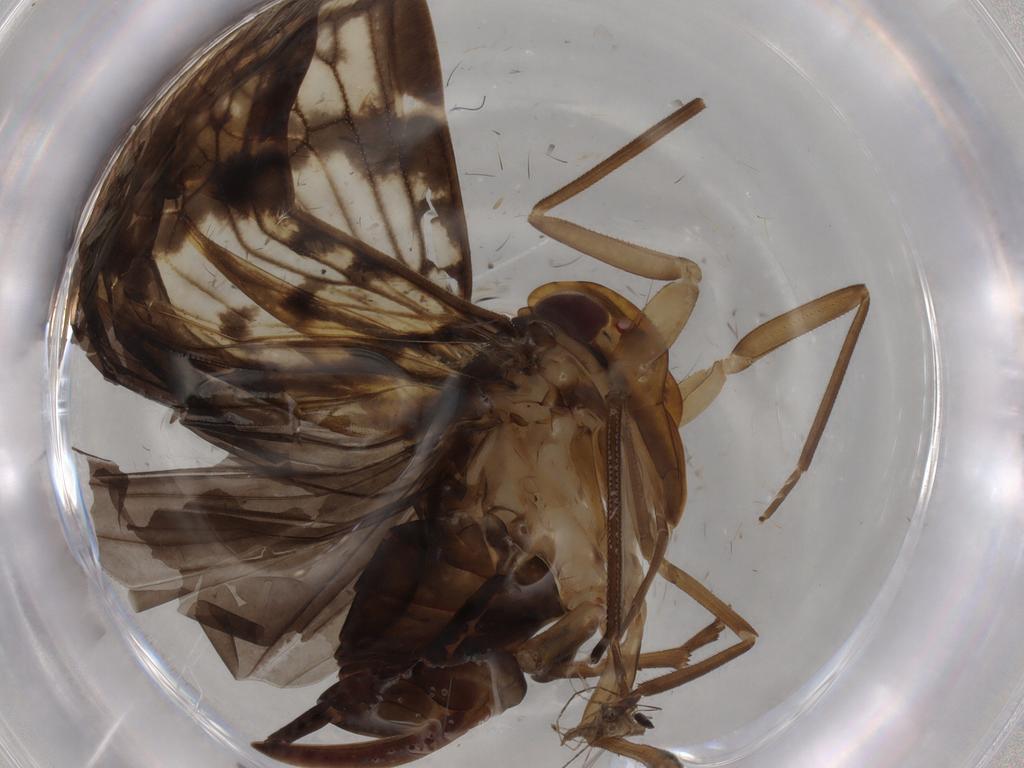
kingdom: Animalia
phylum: Arthropoda
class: Insecta
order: Hemiptera
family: Cixiidae
